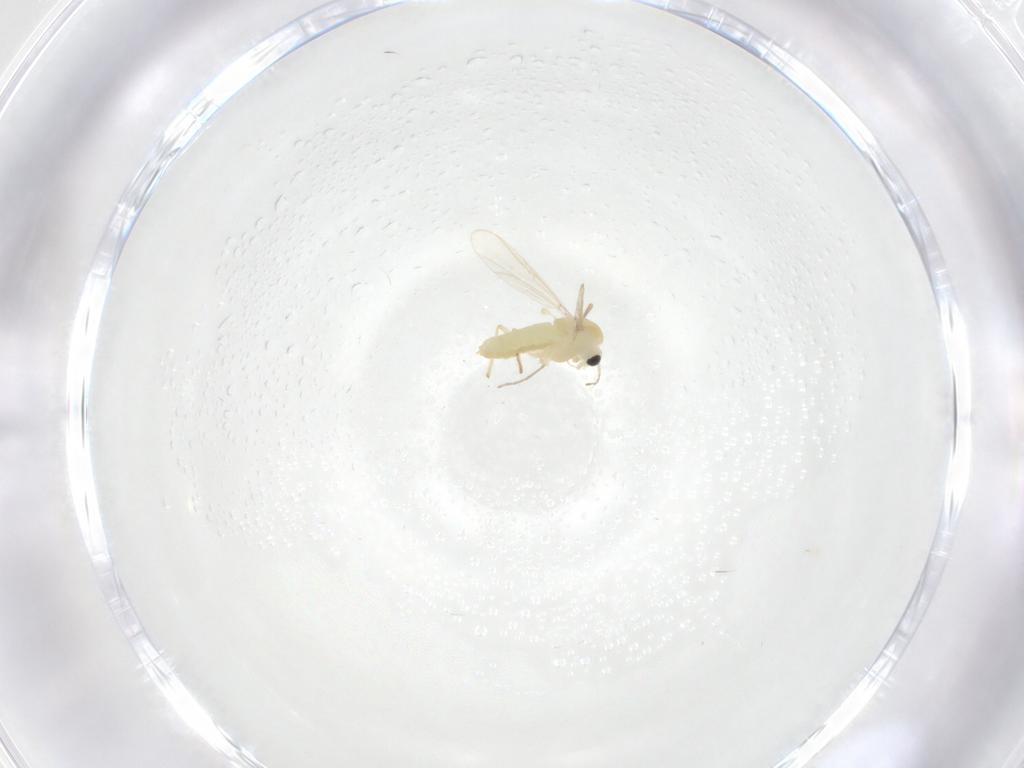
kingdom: Animalia
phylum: Arthropoda
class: Insecta
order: Diptera
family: Chironomidae
